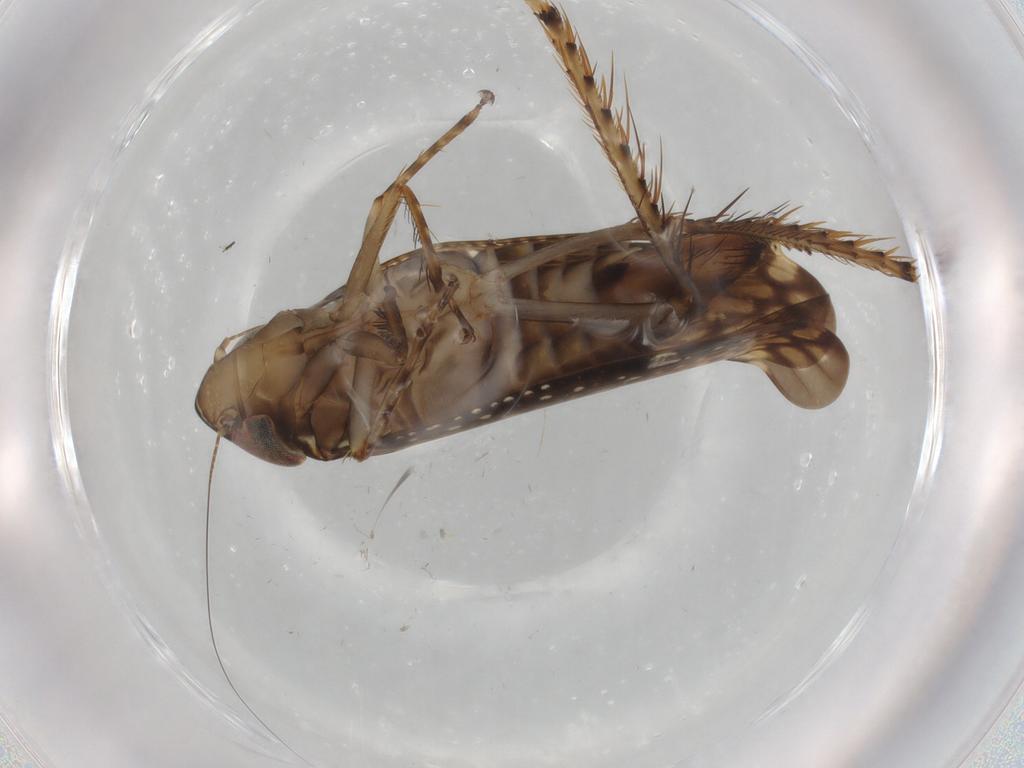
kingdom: Animalia
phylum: Arthropoda
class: Insecta
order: Hemiptera
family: Cicadellidae
